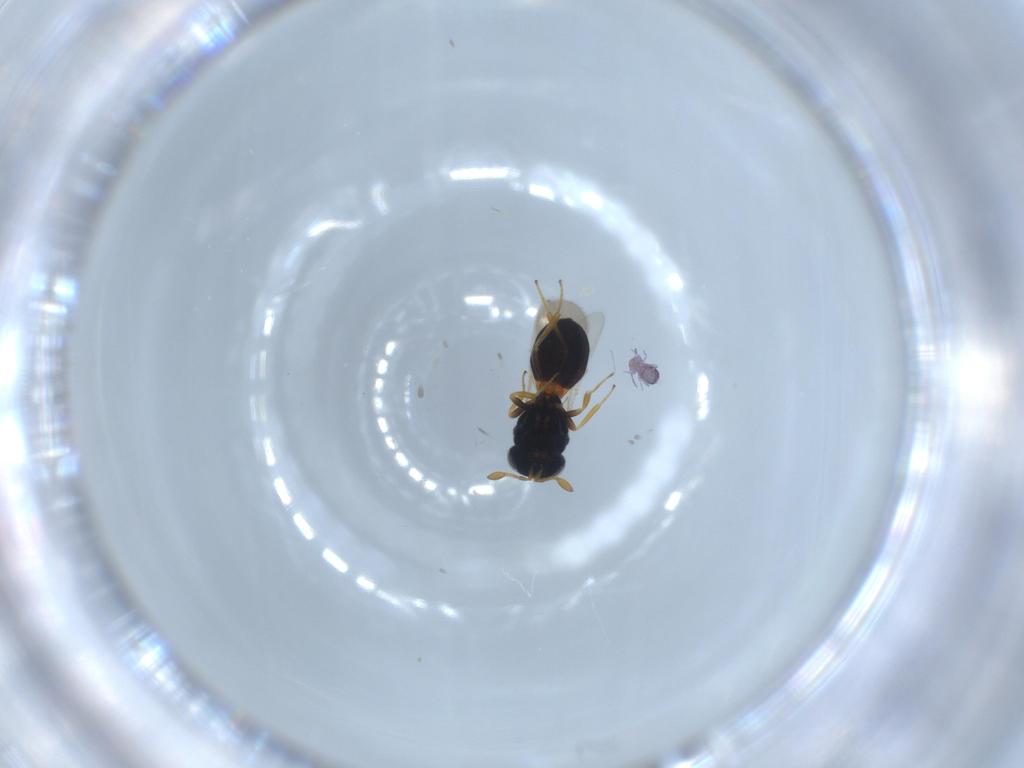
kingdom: Animalia
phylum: Arthropoda
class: Insecta
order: Hymenoptera
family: Scelionidae
